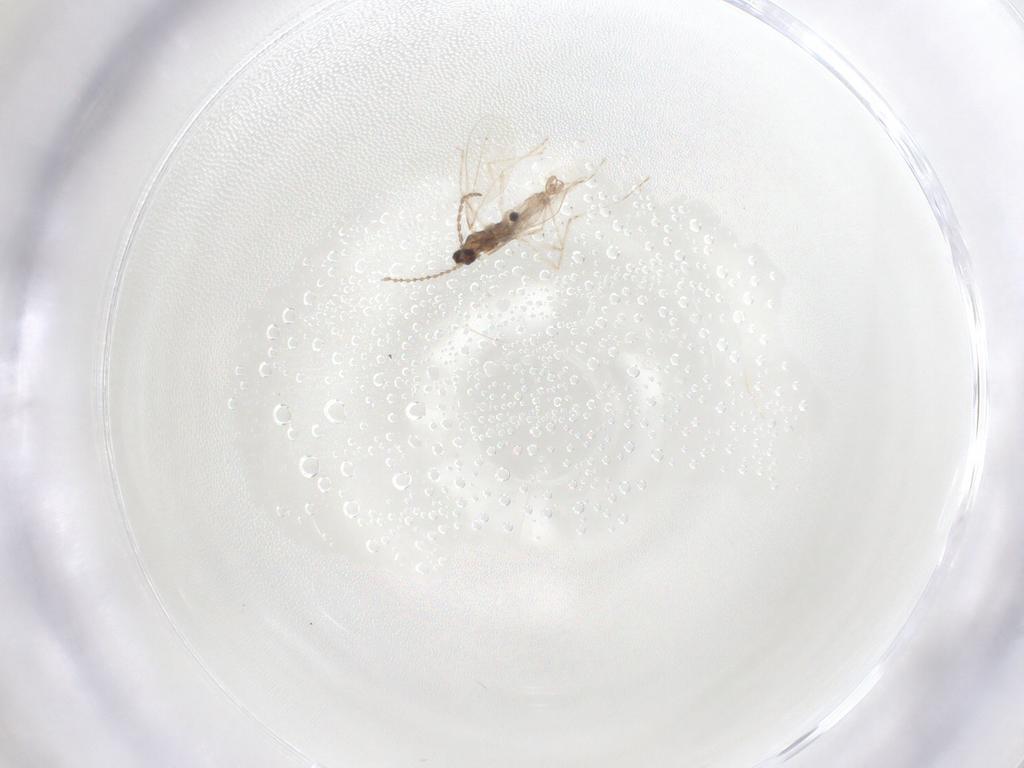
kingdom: Animalia
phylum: Arthropoda
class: Insecta
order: Diptera
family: Cecidomyiidae
